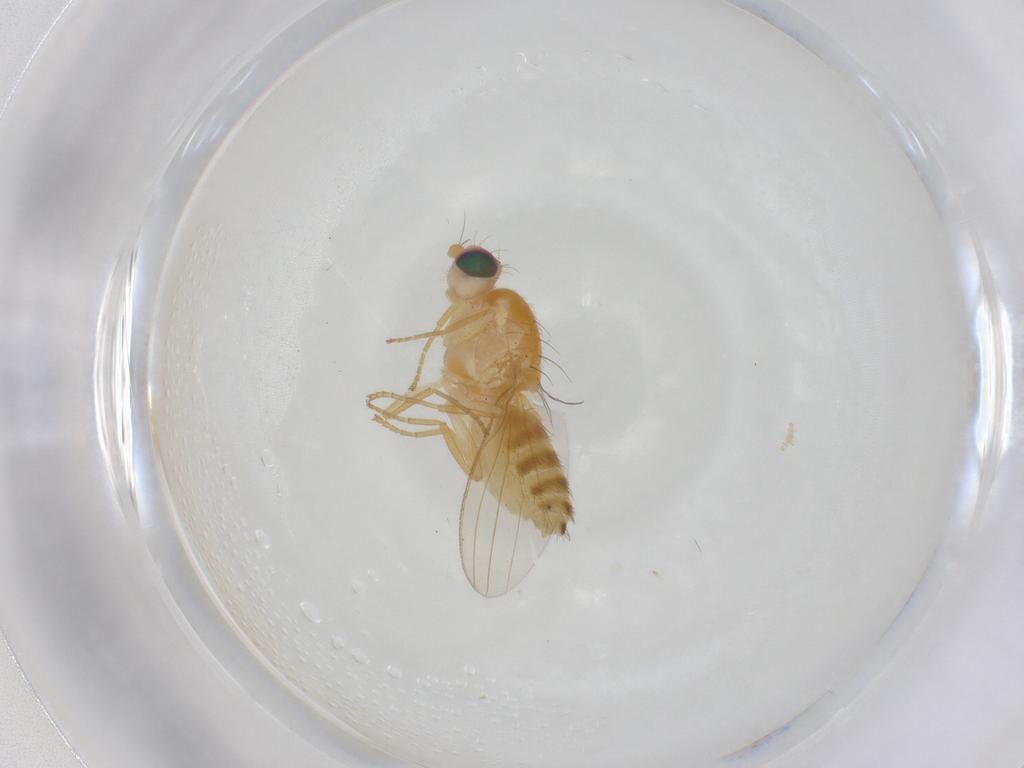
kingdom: Animalia
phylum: Arthropoda
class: Insecta
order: Diptera
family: Chyromyidae
